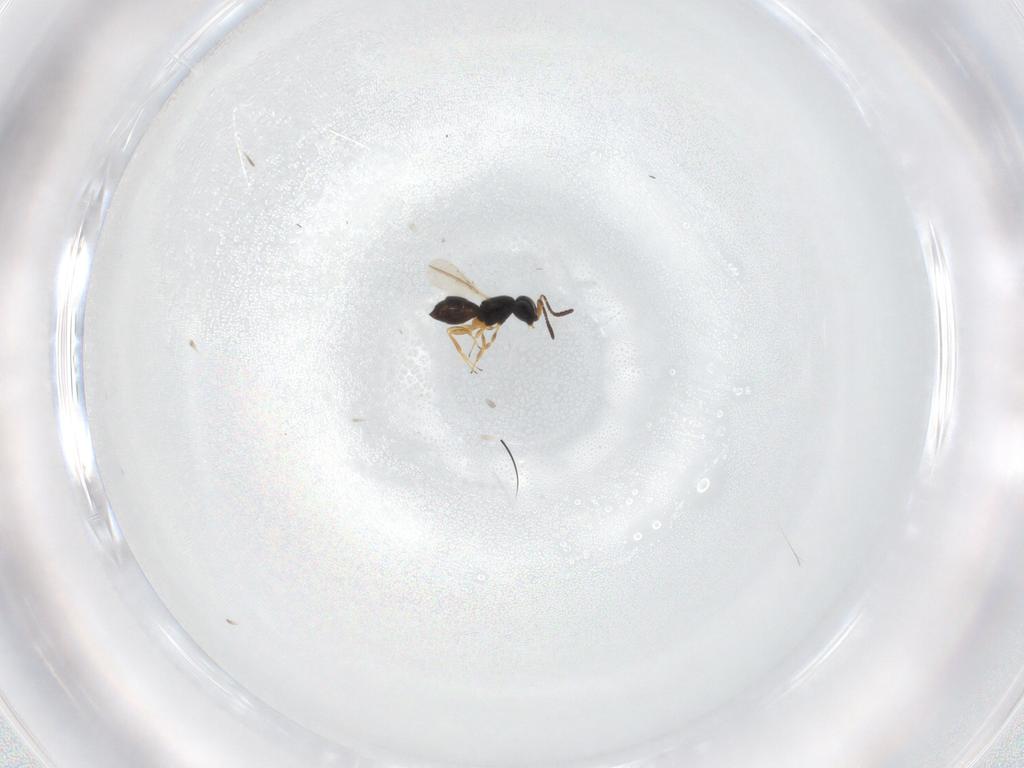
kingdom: Animalia
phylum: Arthropoda
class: Insecta
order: Hymenoptera
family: Scelionidae
